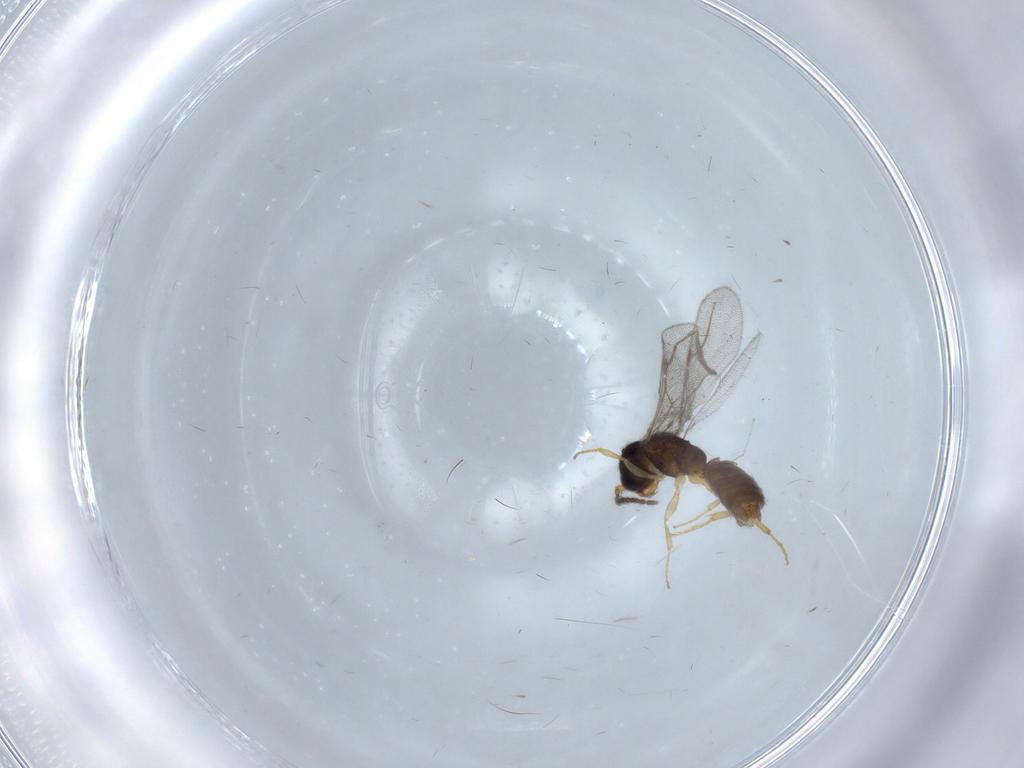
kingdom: Animalia
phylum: Arthropoda
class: Insecta
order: Hymenoptera
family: Bethylidae
